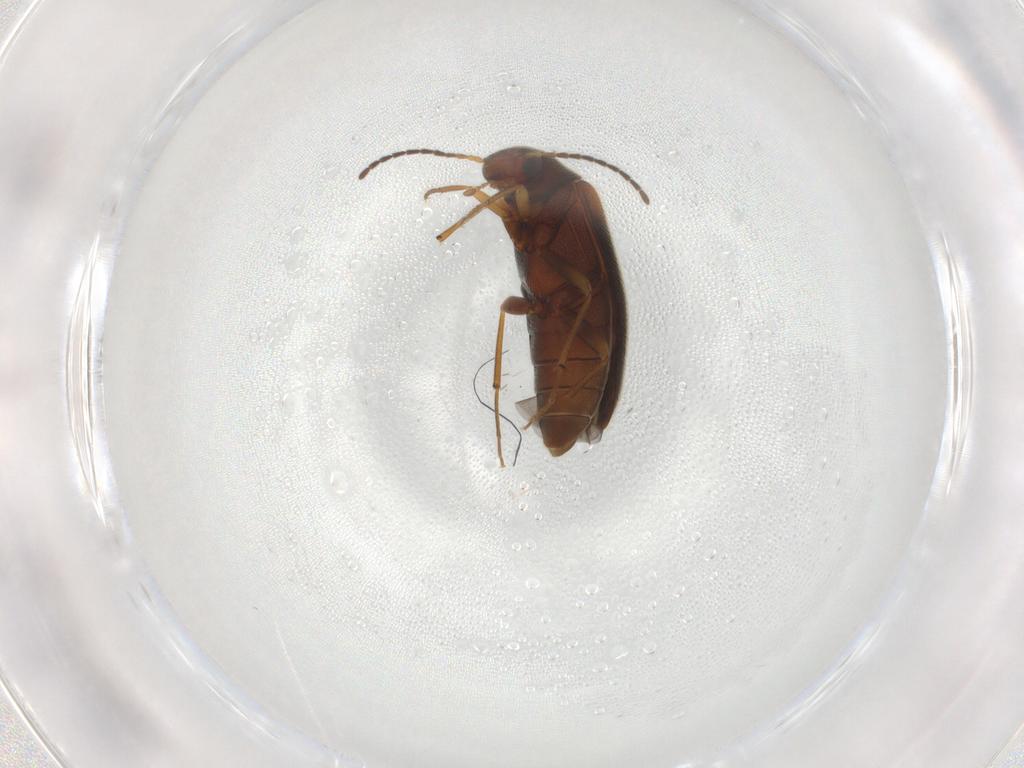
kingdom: Animalia
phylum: Arthropoda
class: Insecta
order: Coleoptera
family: Melandryidae
